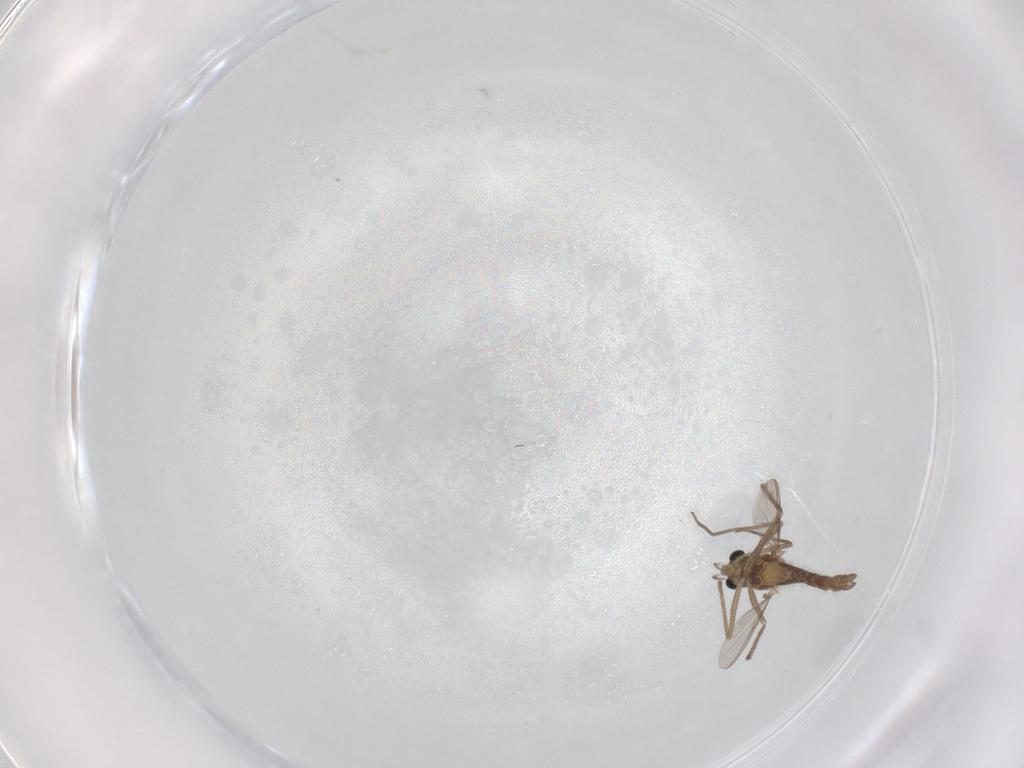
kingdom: Animalia
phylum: Arthropoda
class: Insecta
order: Diptera
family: Chironomidae
